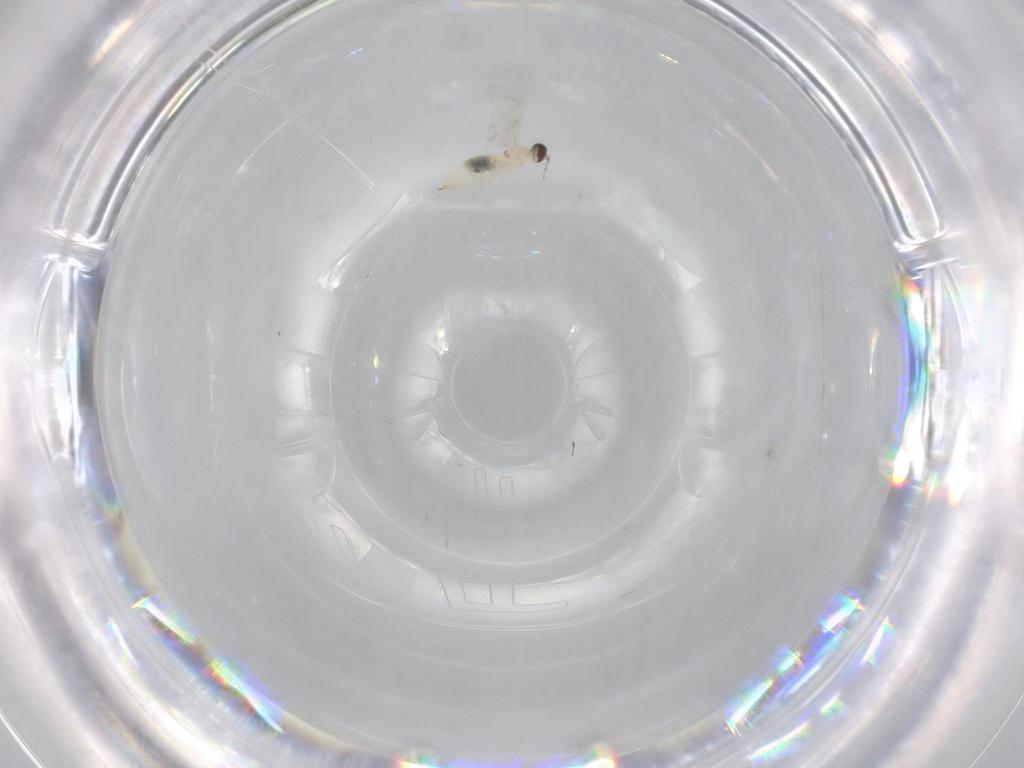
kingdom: Animalia
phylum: Arthropoda
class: Insecta
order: Diptera
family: Cecidomyiidae
